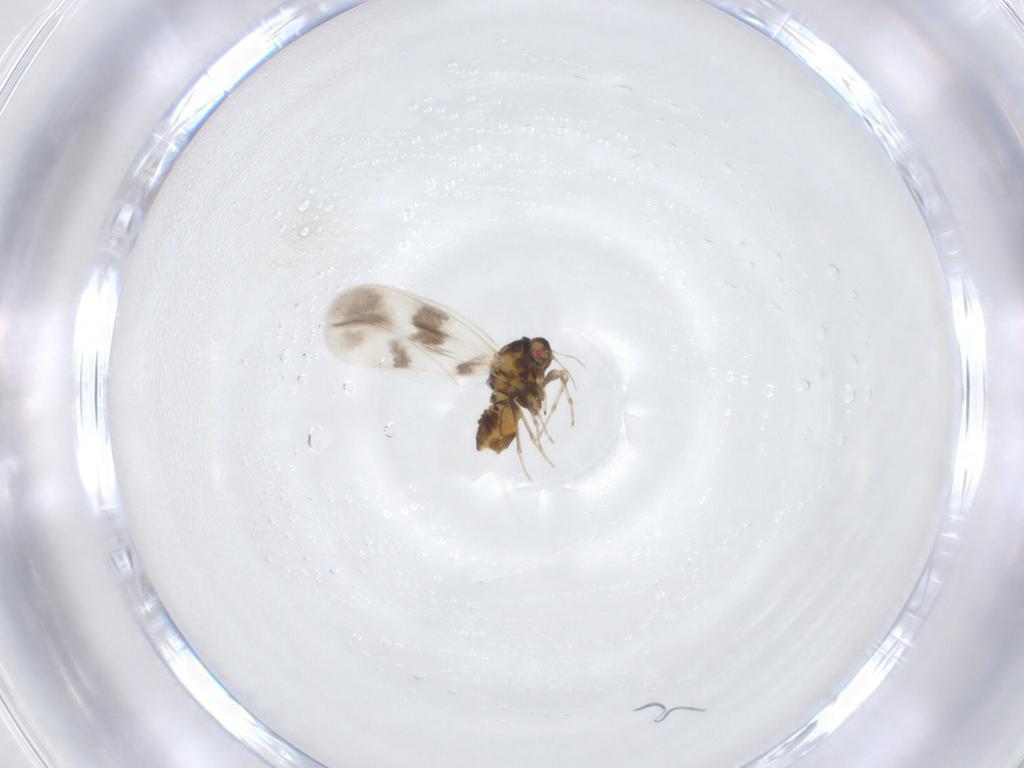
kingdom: Animalia
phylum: Arthropoda
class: Insecta
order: Hemiptera
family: Aleyrodidae
